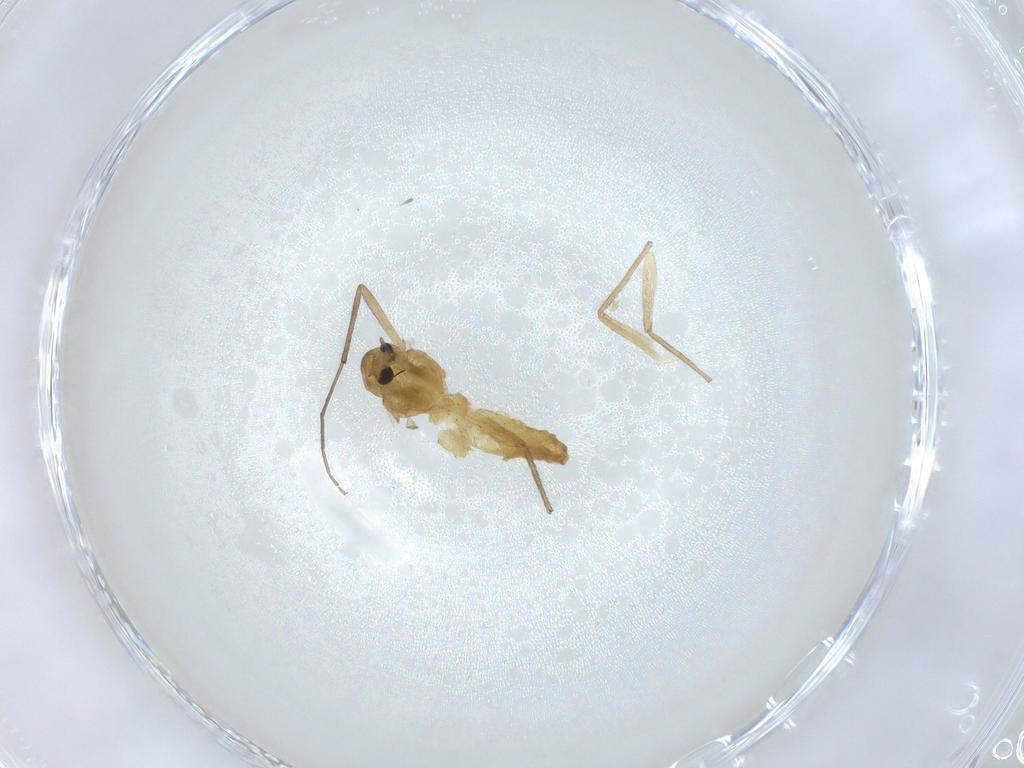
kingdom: Animalia
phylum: Arthropoda
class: Insecta
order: Diptera
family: Chironomidae
